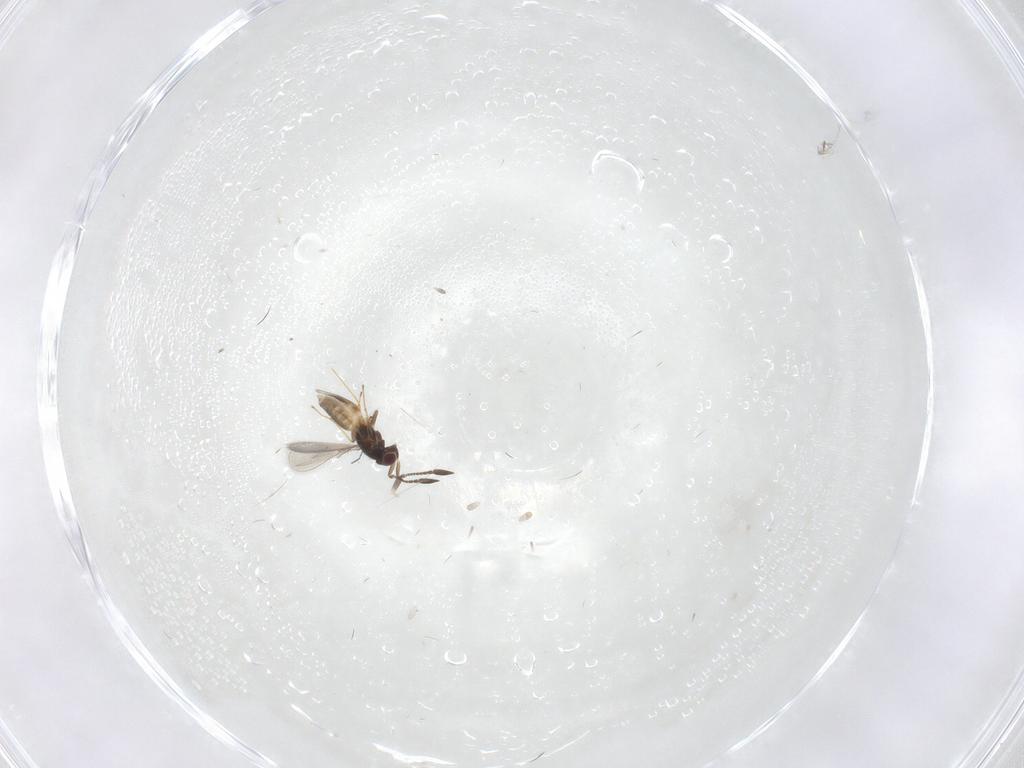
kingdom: Animalia
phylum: Arthropoda
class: Insecta
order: Hymenoptera
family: Mymaridae
